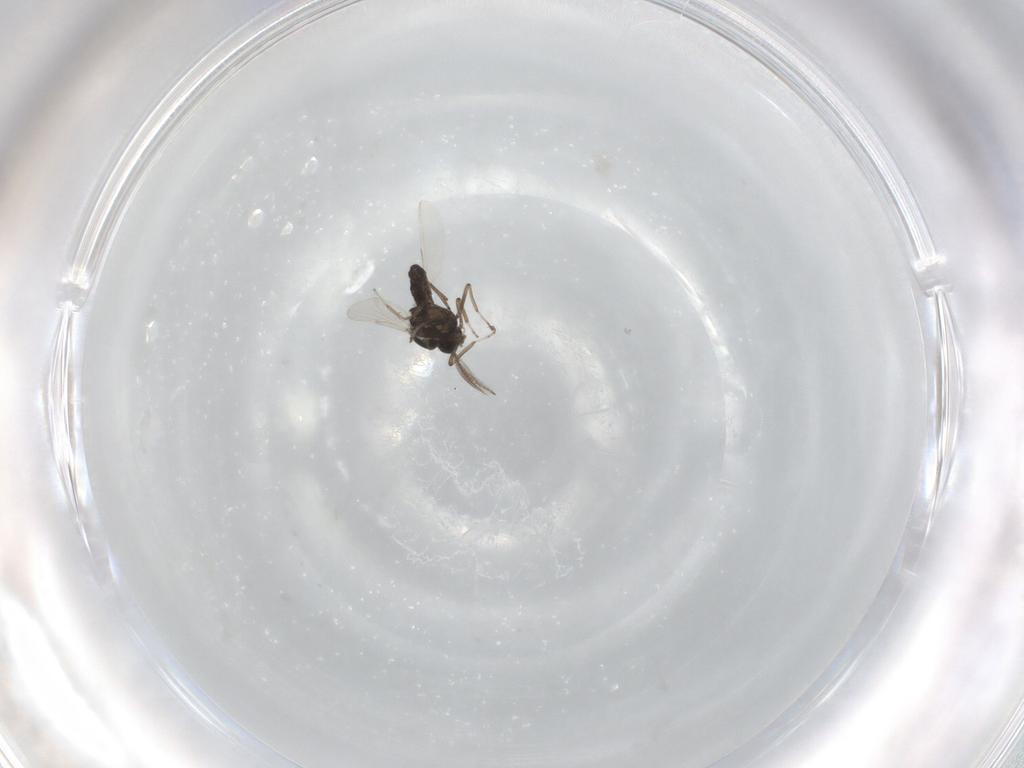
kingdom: Animalia
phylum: Arthropoda
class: Insecta
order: Diptera
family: Ceratopogonidae
